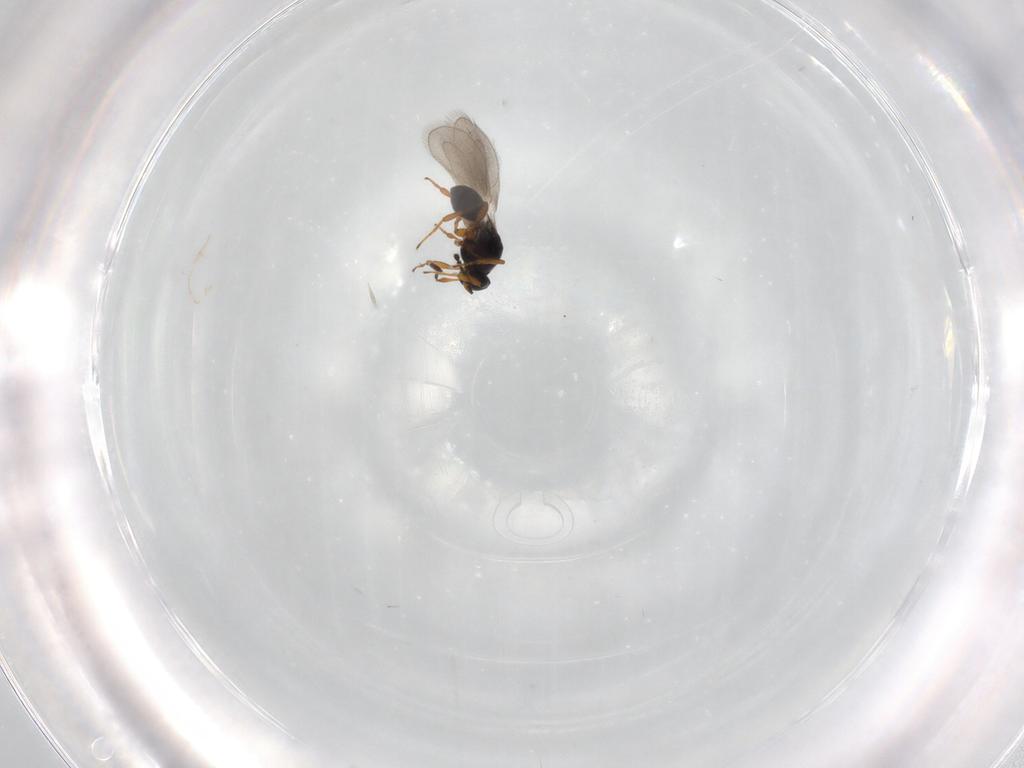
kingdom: Animalia
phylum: Arthropoda
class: Insecta
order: Hymenoptera
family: Platygastridae
